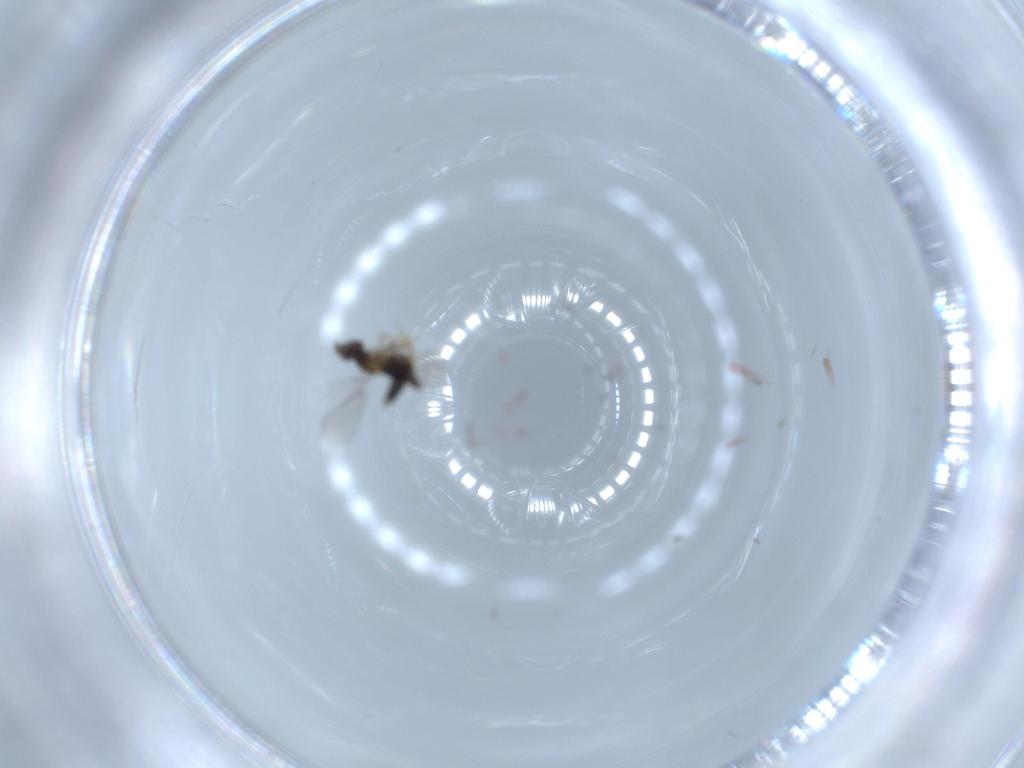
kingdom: Animalia
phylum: Arthropoda
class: Insecta
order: Hymenoptera
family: Aphelinidae
